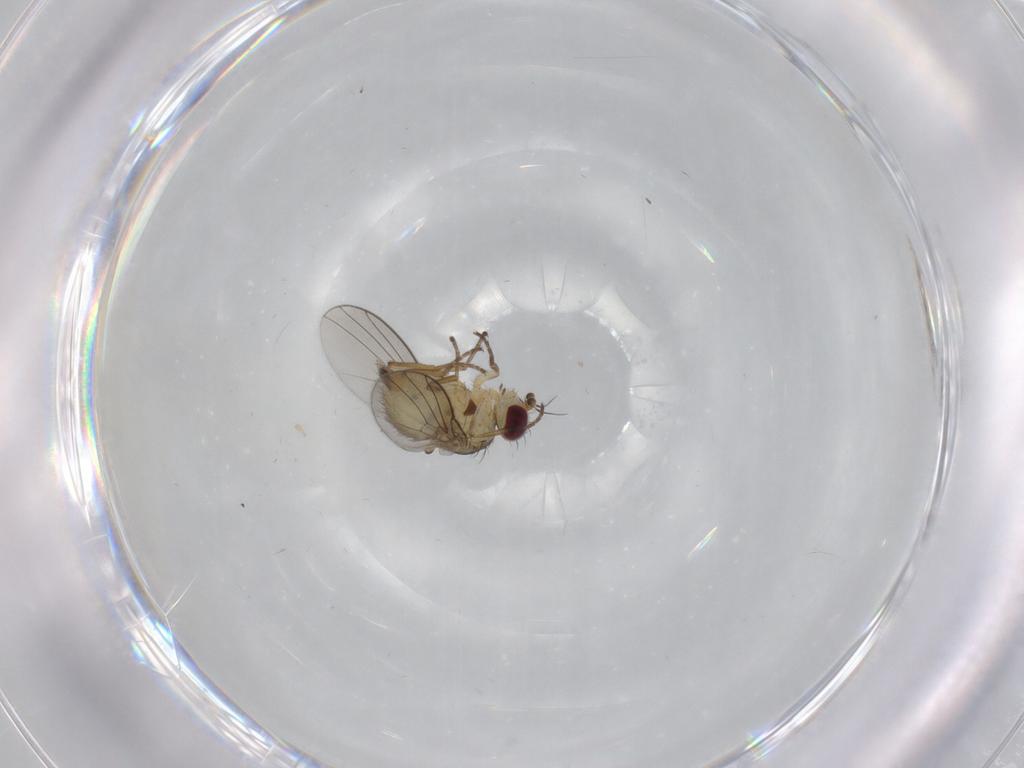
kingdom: Animalia
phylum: Arthropoda
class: Insecta
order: Diptera
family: Agromyzidae
